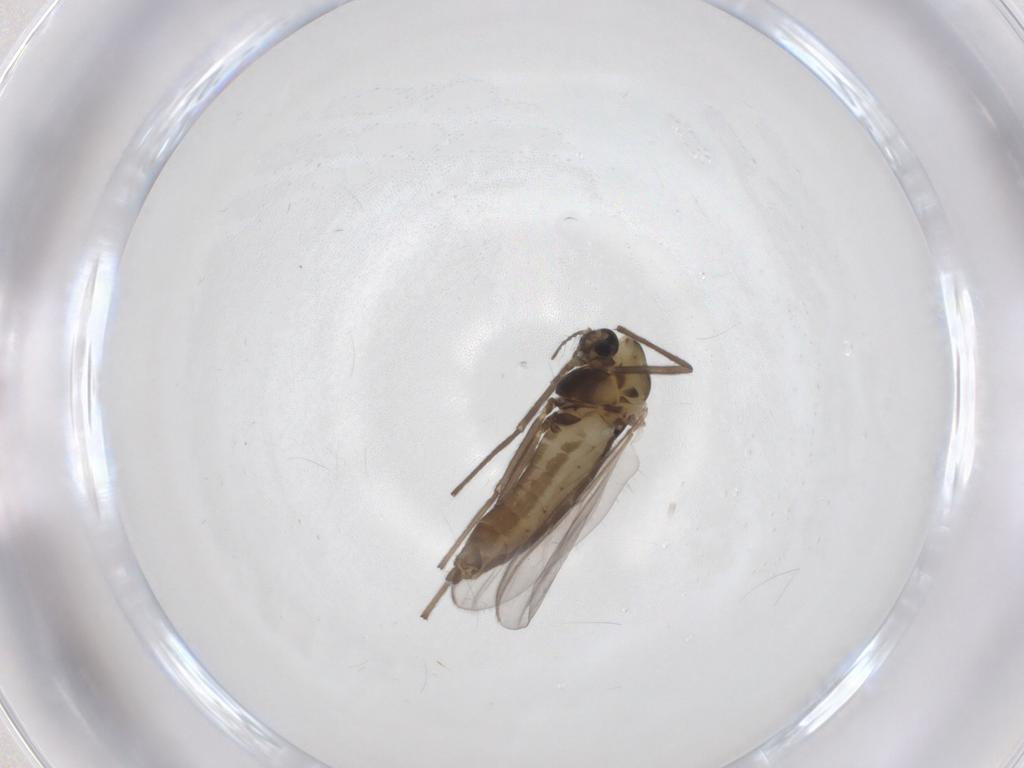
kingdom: Animalia
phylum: Arthropoda
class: Insecta
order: Diptera
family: Chironomidae
